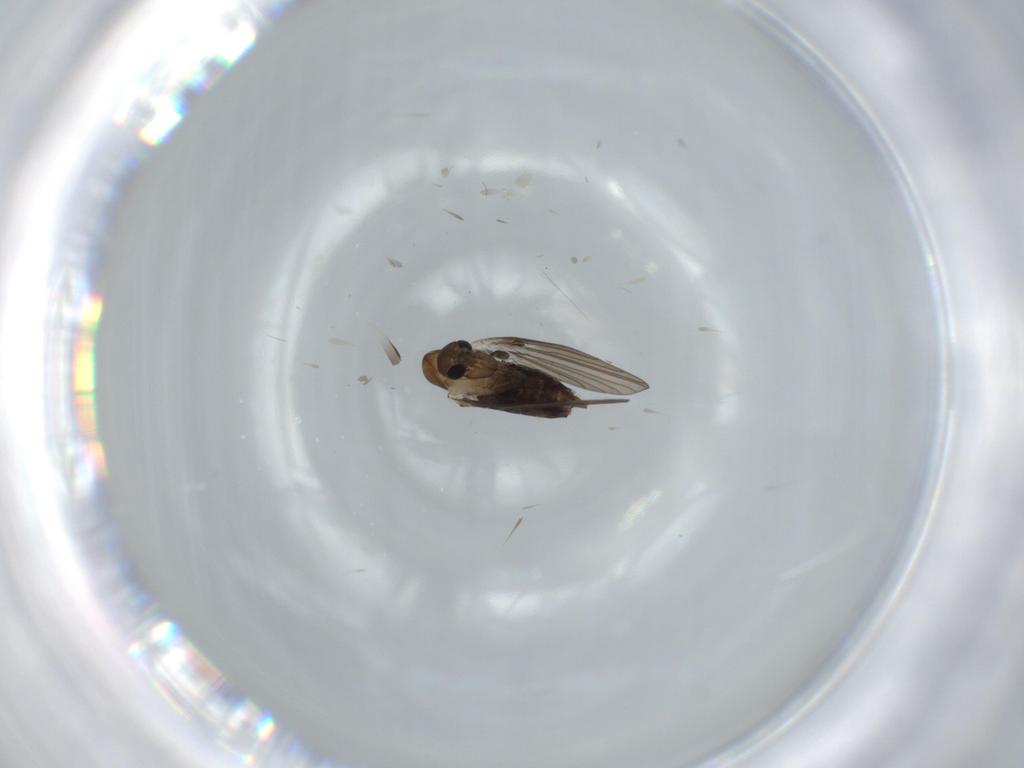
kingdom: Animalia
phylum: Arthropoda
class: Insecta
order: Diptera
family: Psychodidae
